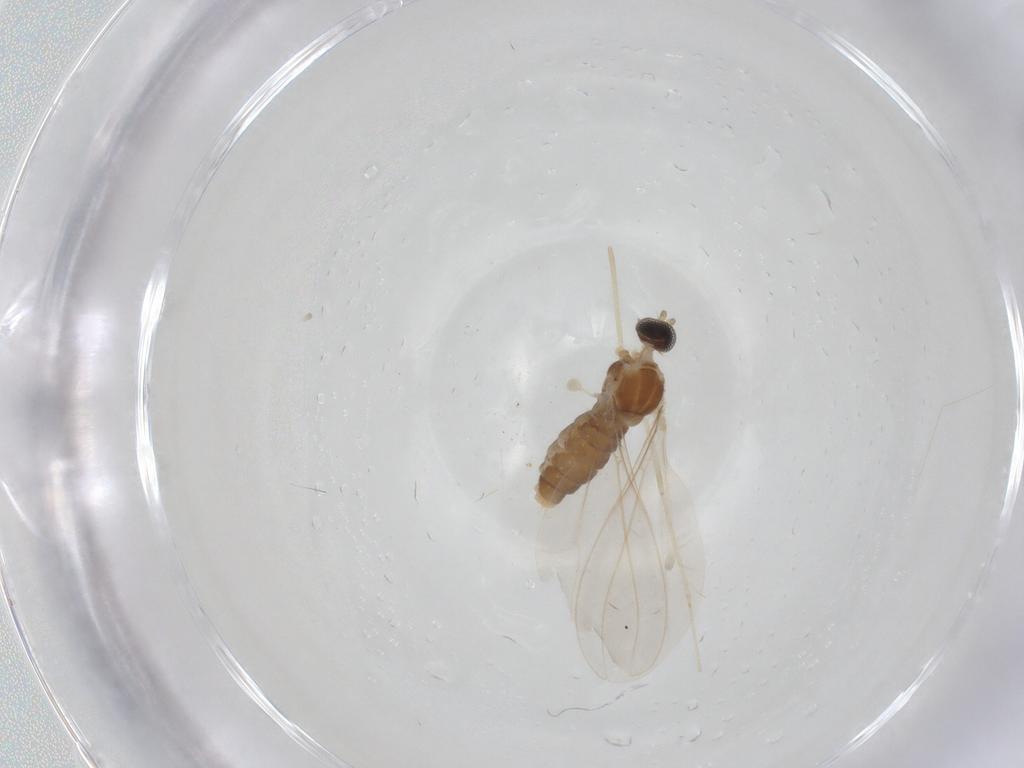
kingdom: Animalia
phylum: Arthropoda
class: Insecta
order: Diptera
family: Cecidomyiidae
